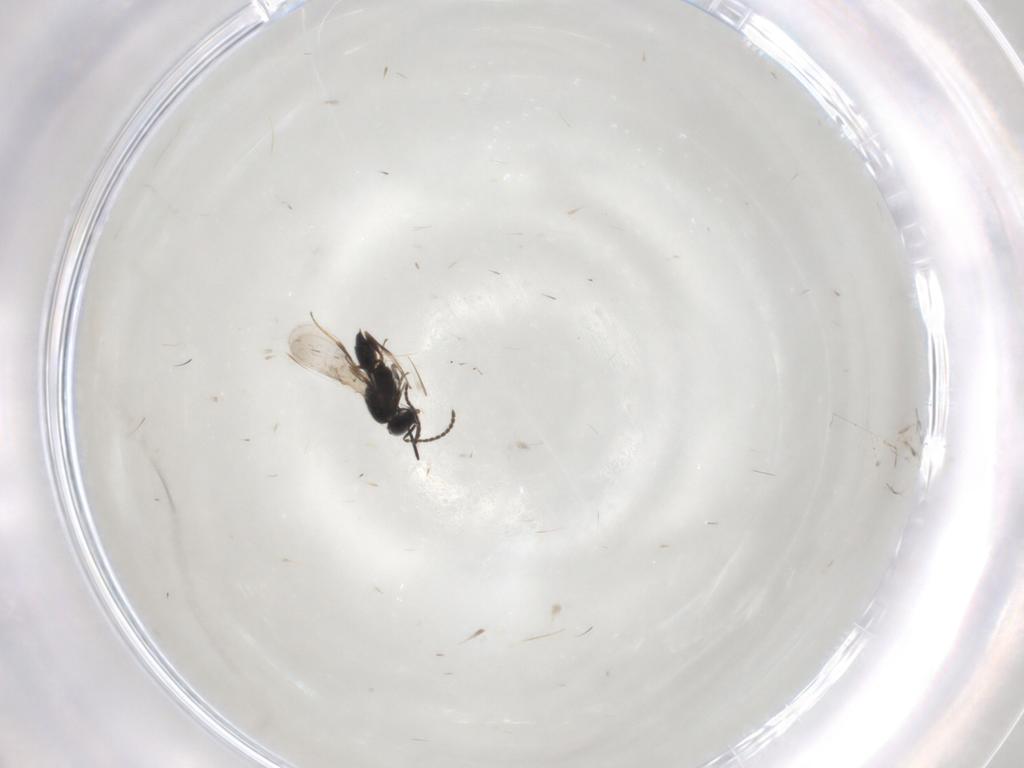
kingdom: Animalia
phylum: Arthropoda
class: Insecta
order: Hymenoptera
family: Scelionidae
